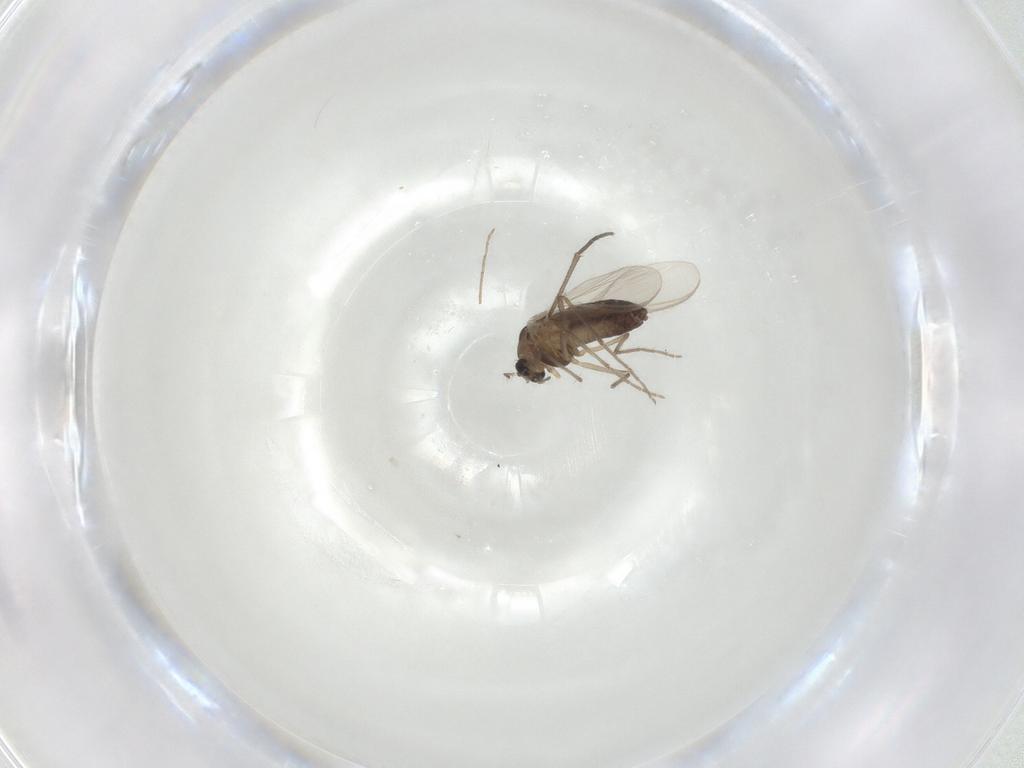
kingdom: Animalia
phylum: Arthropoda
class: Insecta
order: Diptera
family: Chironomidae
